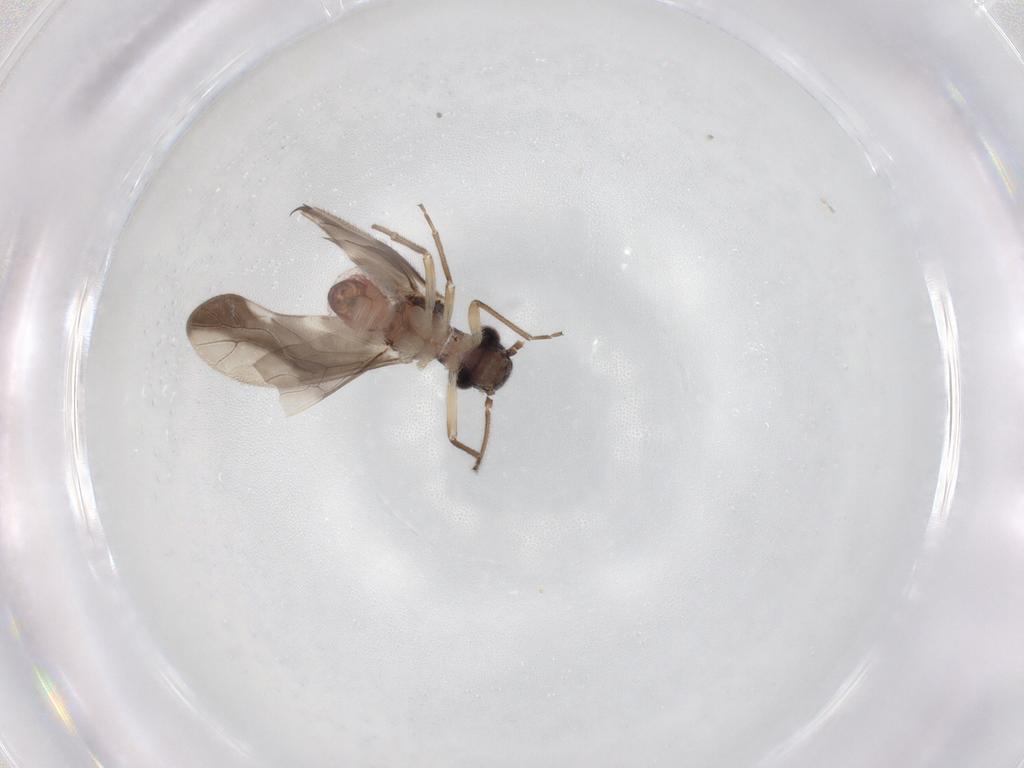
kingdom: Animalia
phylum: Arthropoda
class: Insecta
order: Psocodea
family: Caeciliusidae
